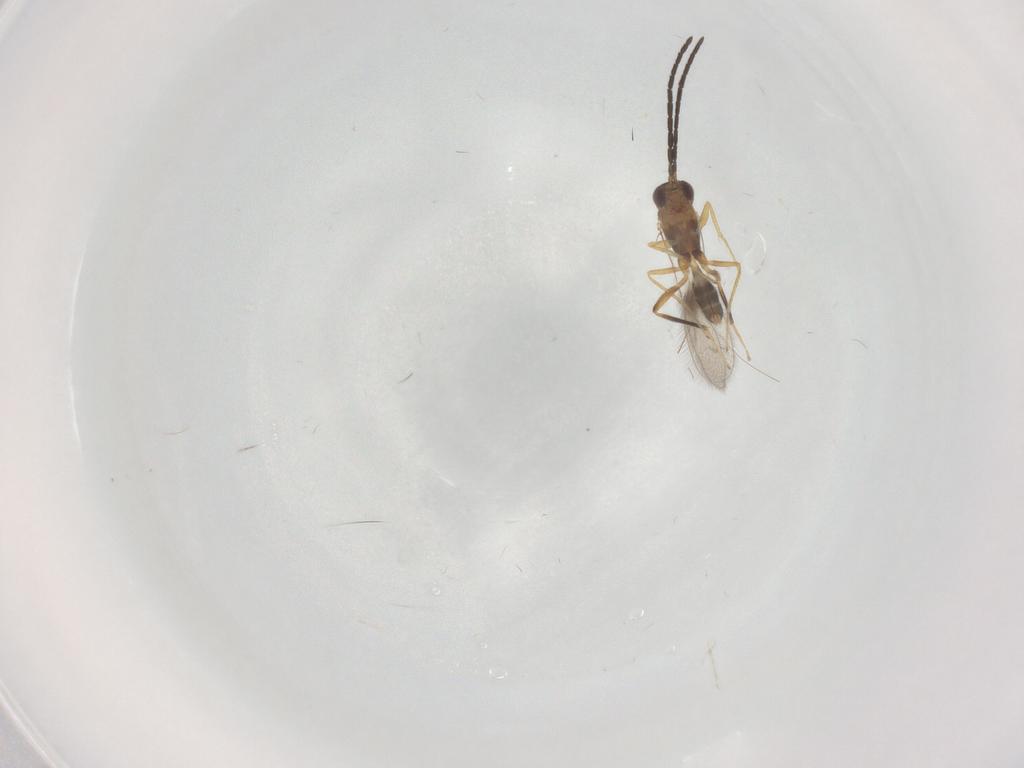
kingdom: Animalia
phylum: Arthropoda
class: Insecta
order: Hymenoptera
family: Mymaridae
